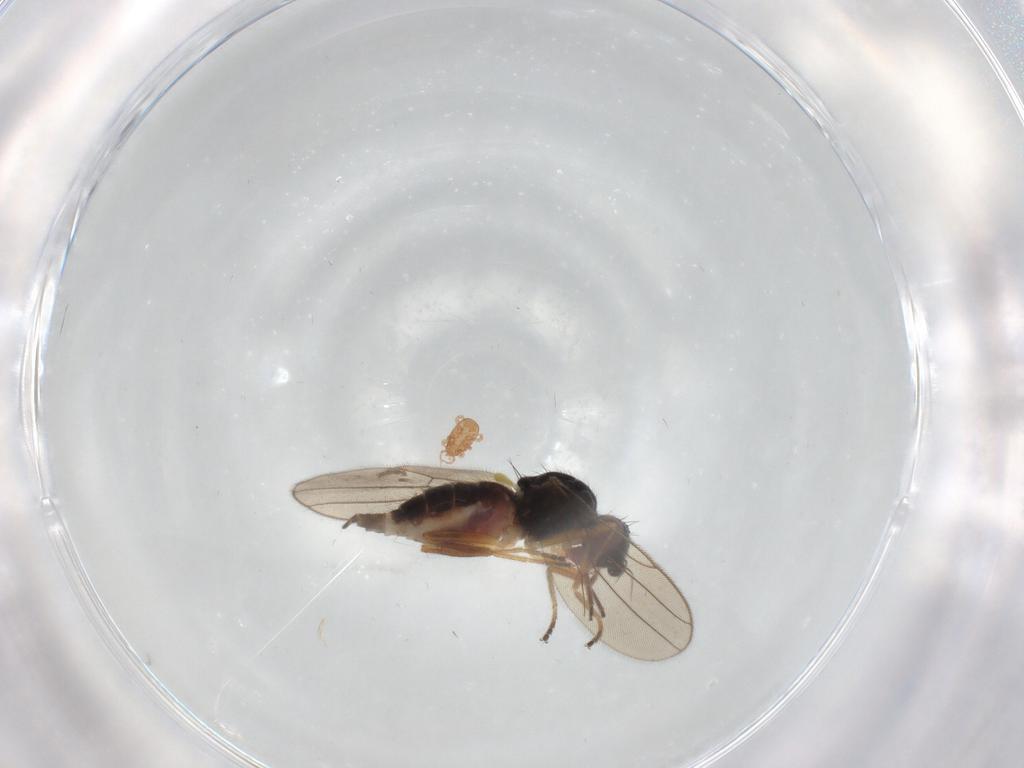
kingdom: Animalia
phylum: Arthropoda
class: Insecta
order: Diptera
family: Chloropidae
